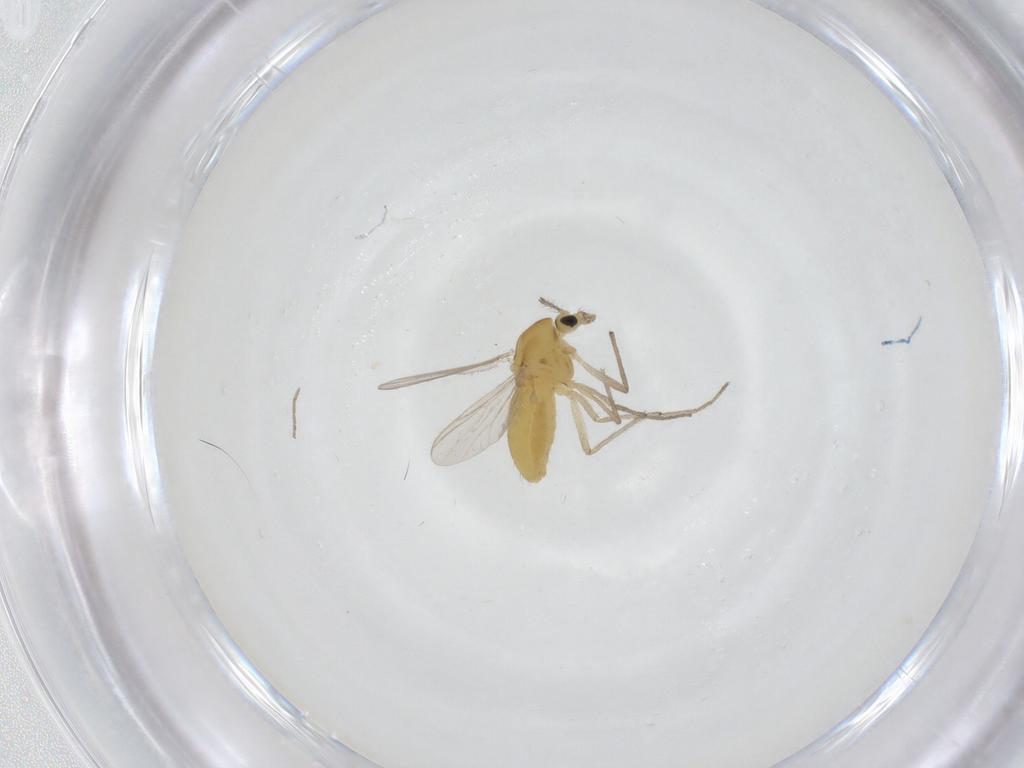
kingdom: Animalia
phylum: Arthropoda
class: Insecta
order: Diptera
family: Chironomidae
